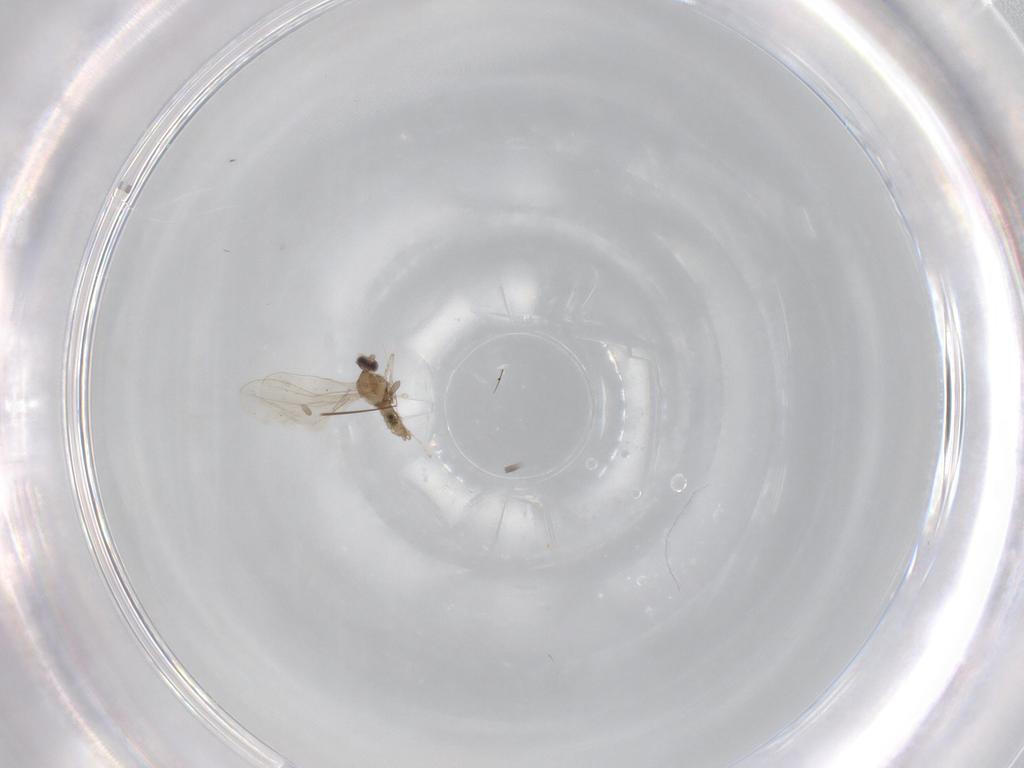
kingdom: Animalia
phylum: Arthropoda
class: Insecta
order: Diptera
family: Cecidomyiidae
